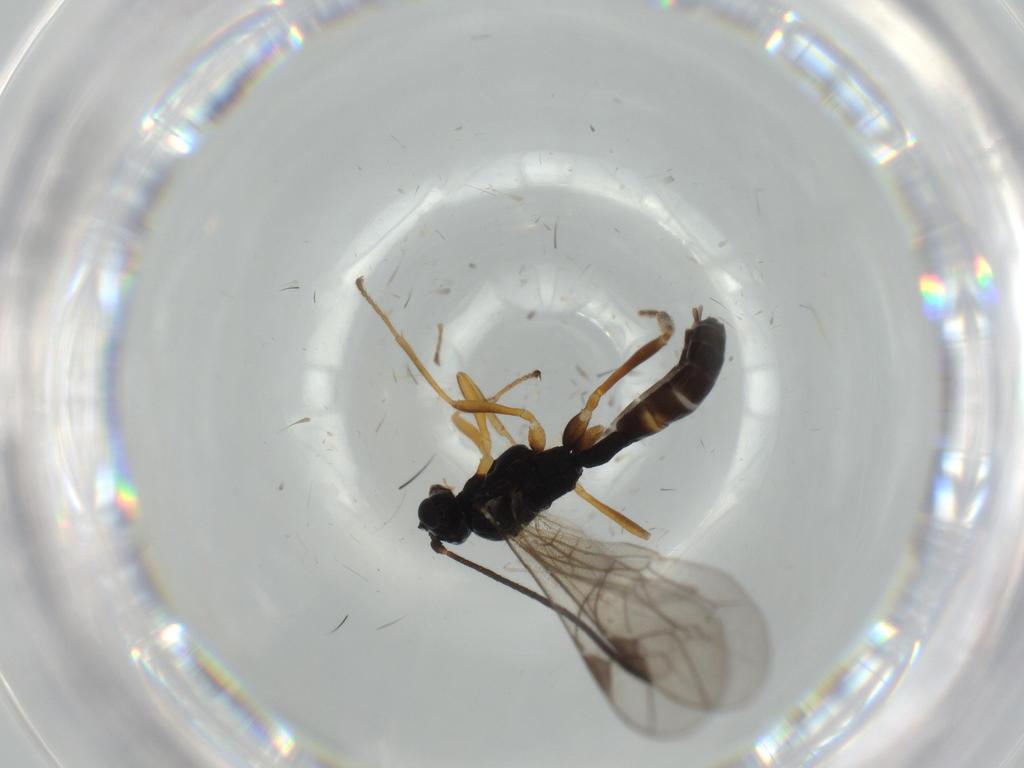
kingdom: Animalia
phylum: Arthropoda
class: Insecta
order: Hymenoptera
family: Ichneumonidae
